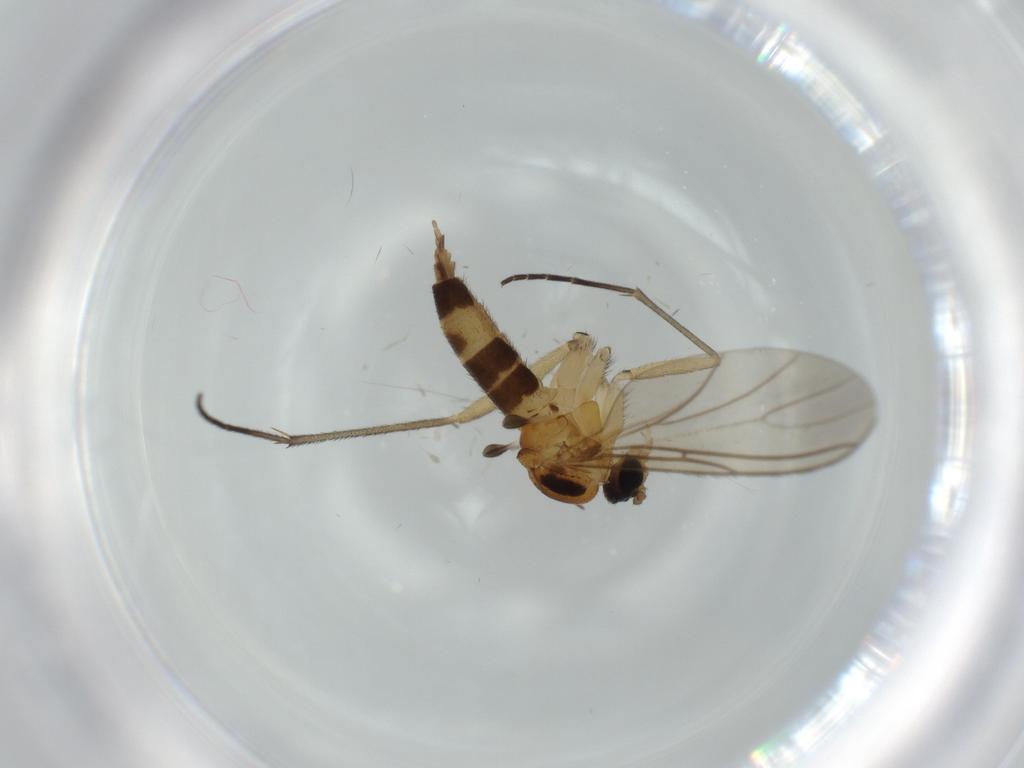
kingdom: Animalia
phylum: Arthropoda
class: Insecta
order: Diptera
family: Sciaridae
